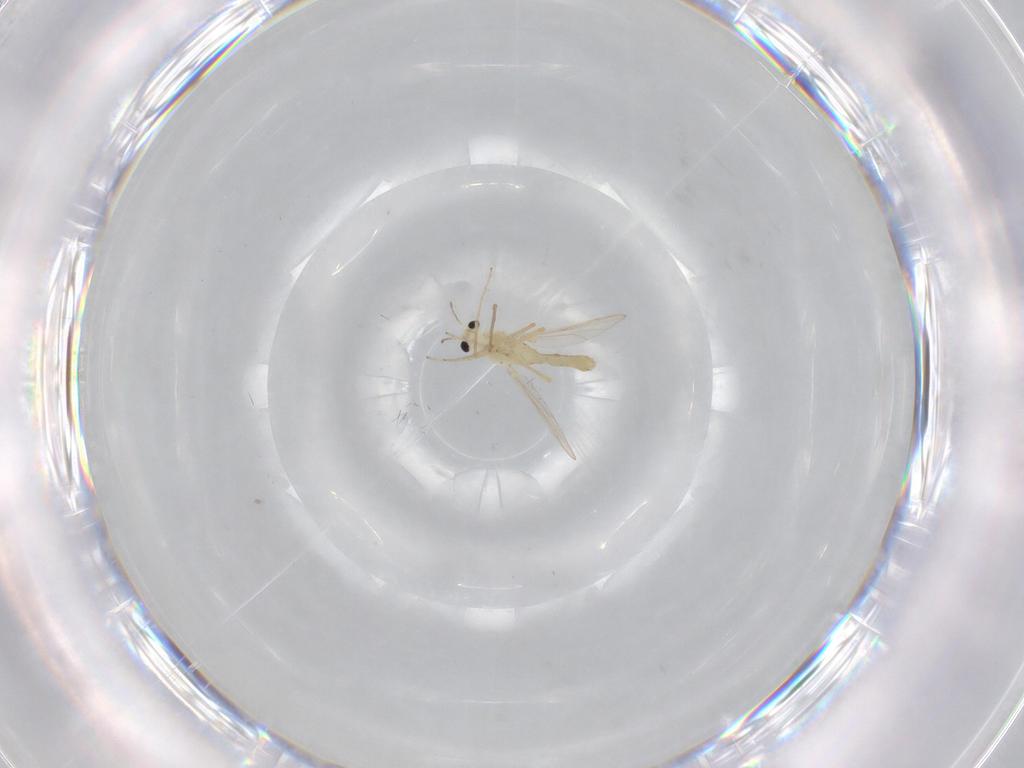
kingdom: Animalia
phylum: Arthropoda
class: Insecta
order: Diptera
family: Chironomidae
